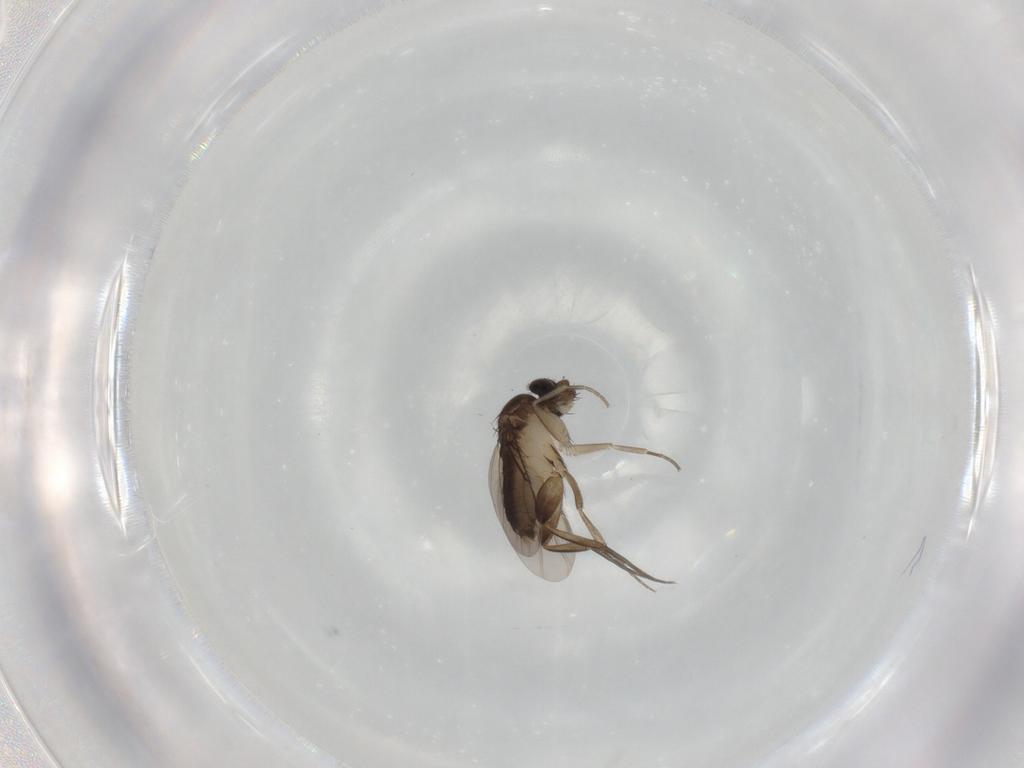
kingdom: Animalia
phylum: Arthropoda
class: Insecta
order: Diptera
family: Phoridae
